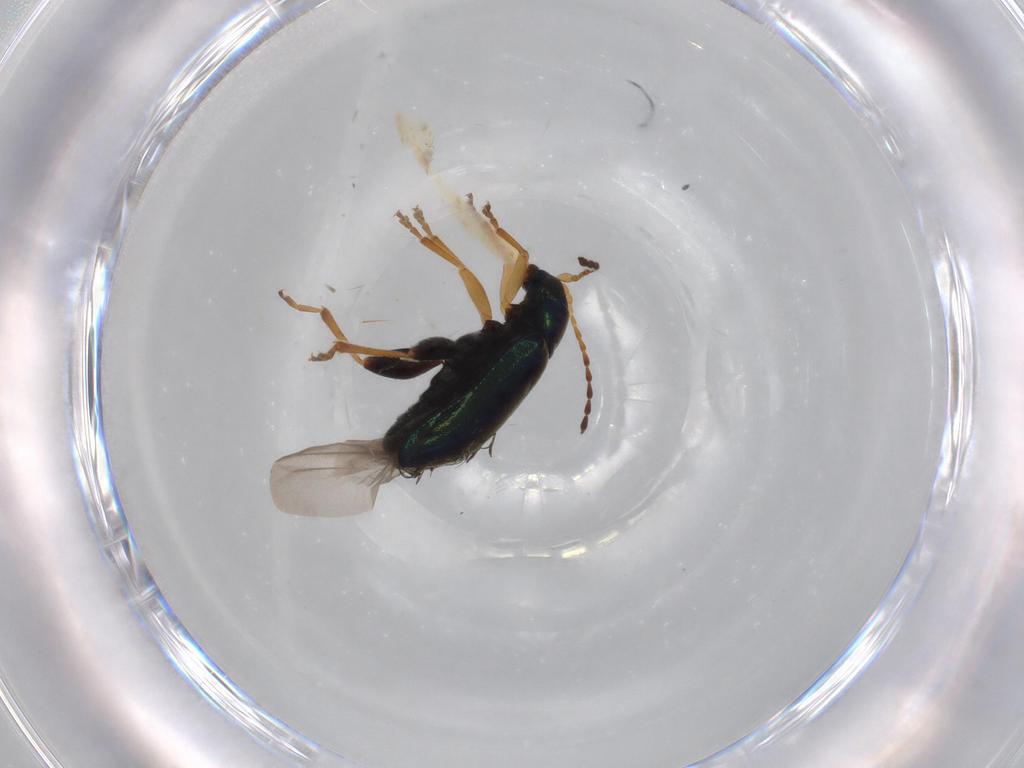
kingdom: Animalia
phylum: Arthropoda
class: Insecta
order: Coleoptera
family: Chrysomelidae
